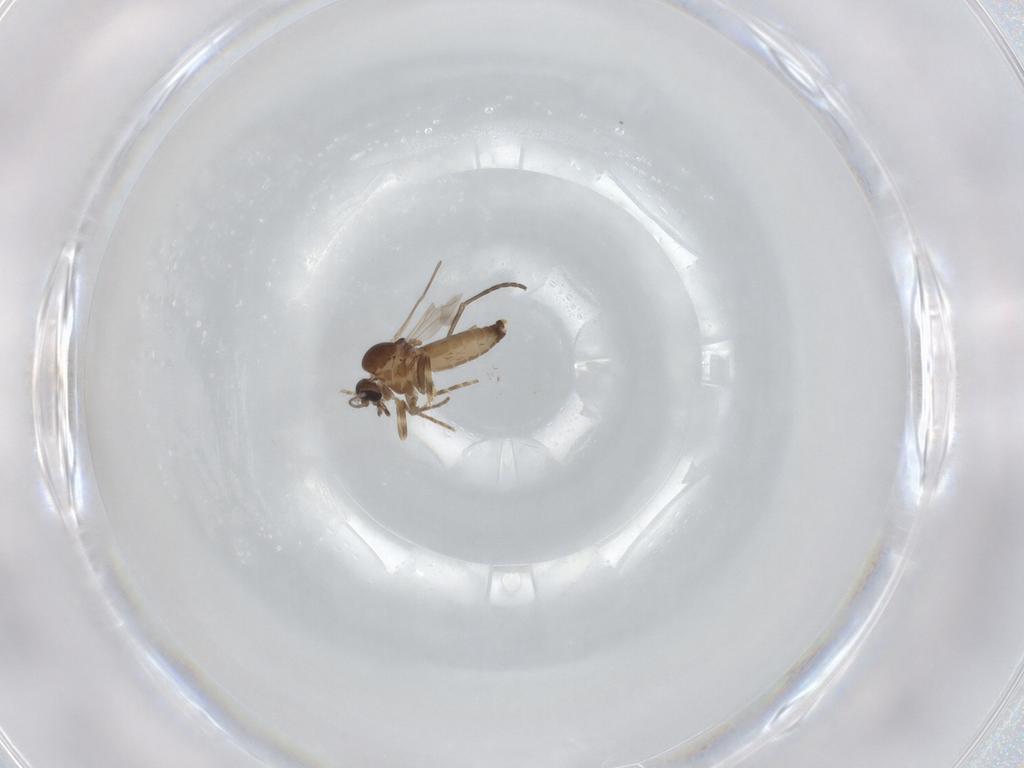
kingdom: Animalia
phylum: Arthropoda
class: Insecta
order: Diptera
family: Ceratopogonidae
